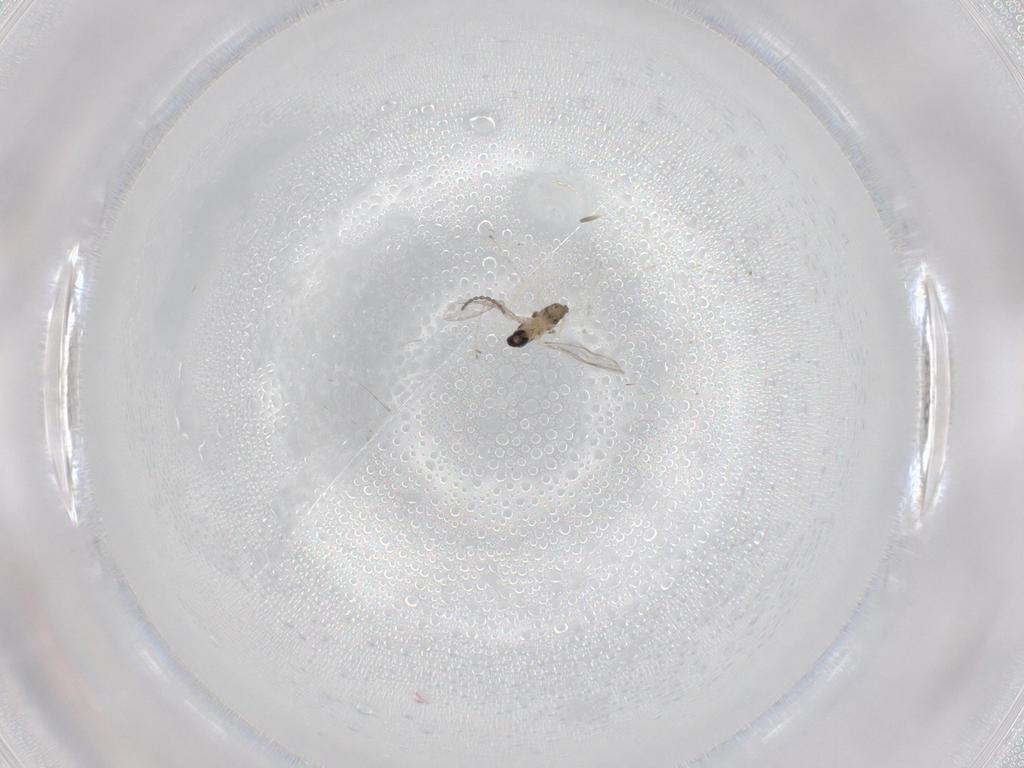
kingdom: Animalia
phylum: Arthropoda
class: Insecta
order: Diptera
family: Cecidomyiidae
